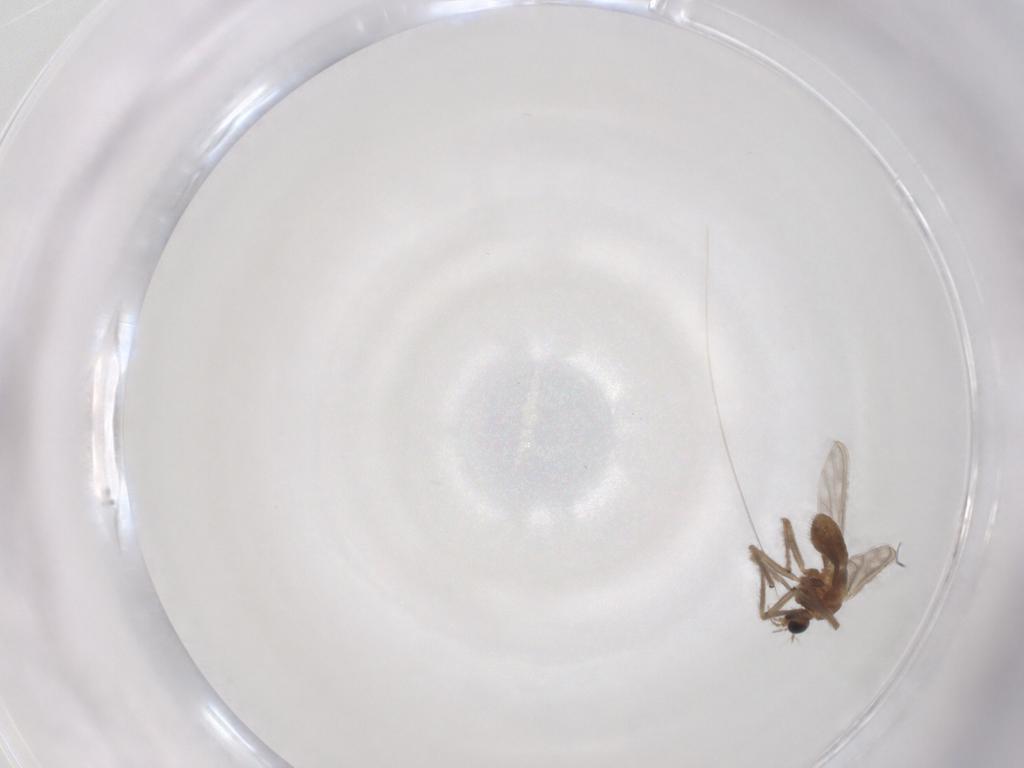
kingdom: Animalia
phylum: Arthropoda
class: Insecta
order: Diptera
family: Chironomidae
